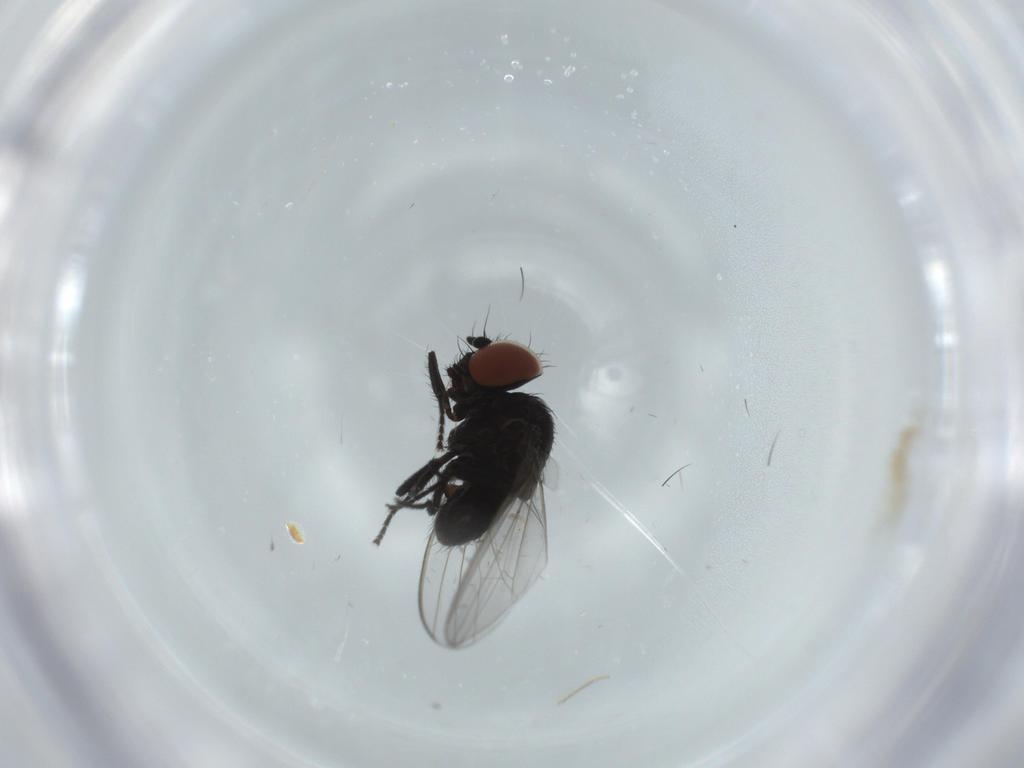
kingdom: Animalia
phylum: Arthropoda
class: Insecta
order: Diptera
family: Milichiidae
